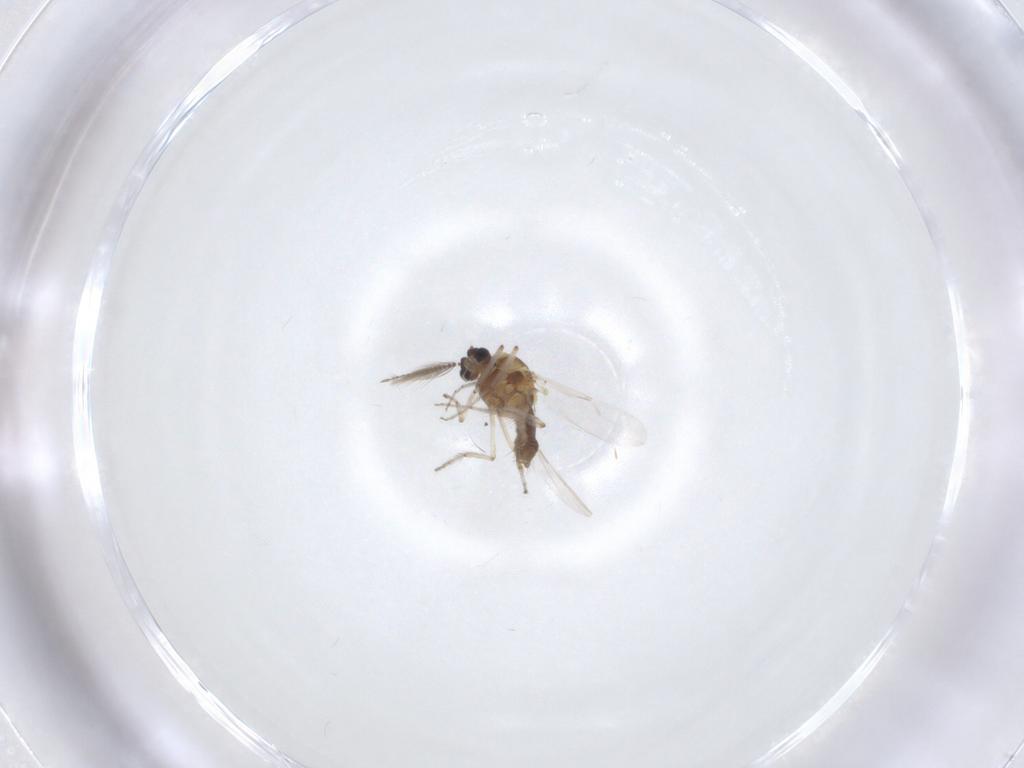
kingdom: Animalia
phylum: Arthropoda
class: Insecta
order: Diptera
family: Ceratopogonidae
